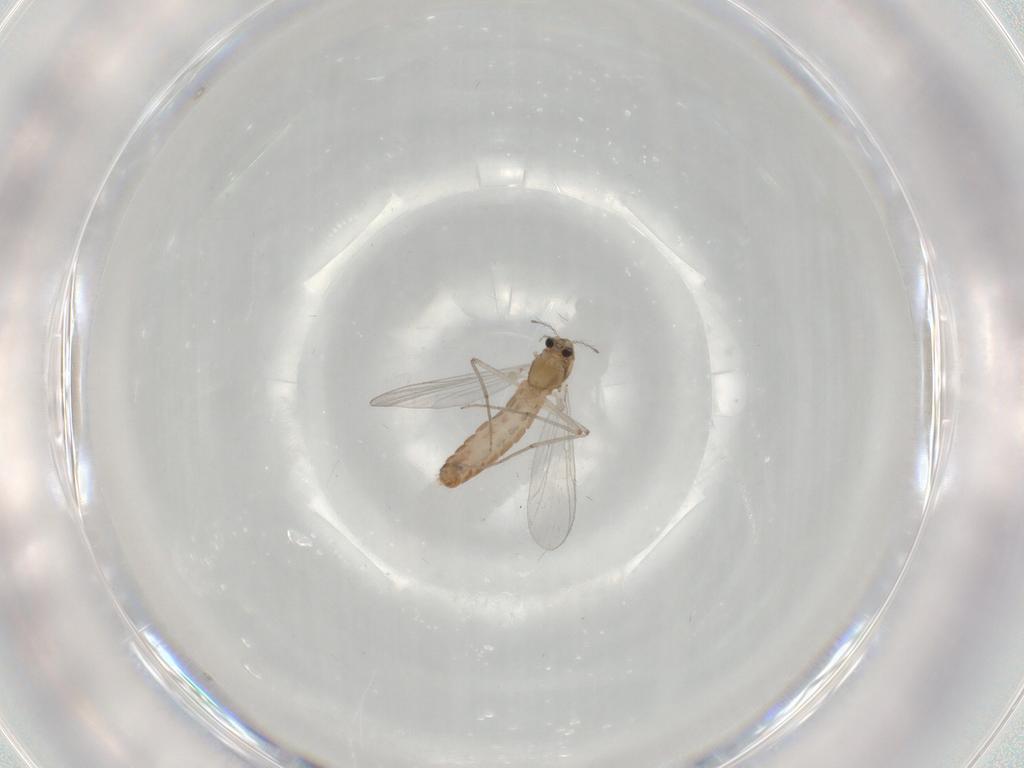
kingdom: Animalia
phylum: Arthropoda
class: Insecta
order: Diptera
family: Chironomidae
